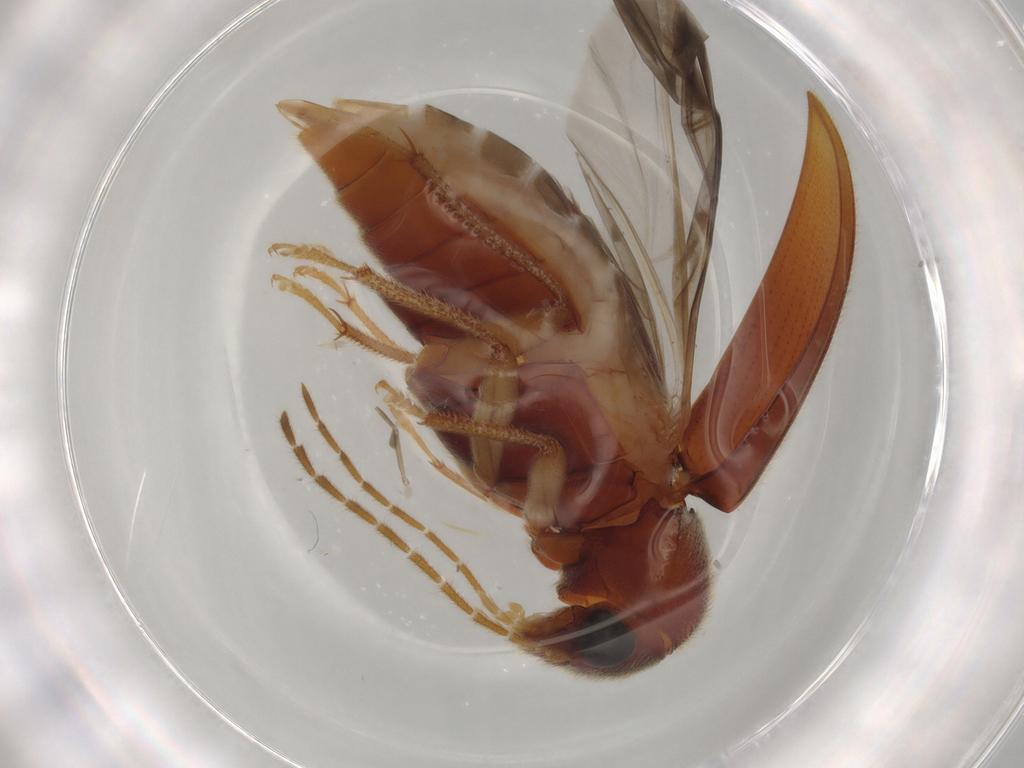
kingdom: Animalia
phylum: Arthropoda
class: Insecta
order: Coleoptera
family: Ptilodactylidae
